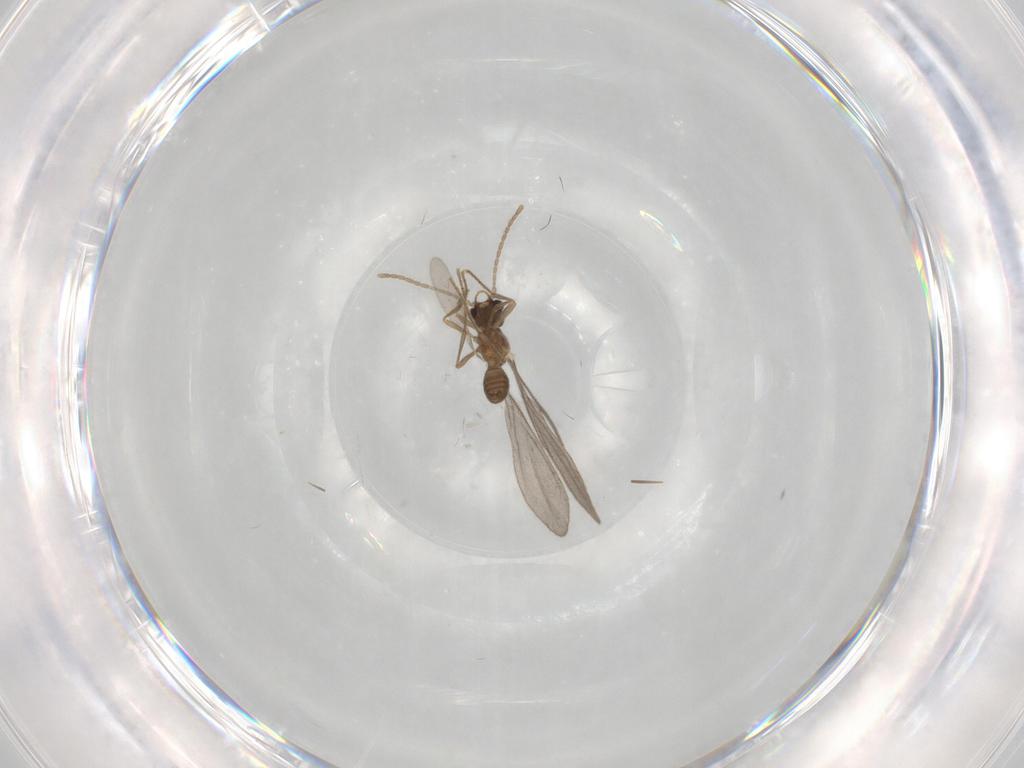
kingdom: Animalia
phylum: Arthropoda
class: Insecta
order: Hymenoptera
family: Formicidae
